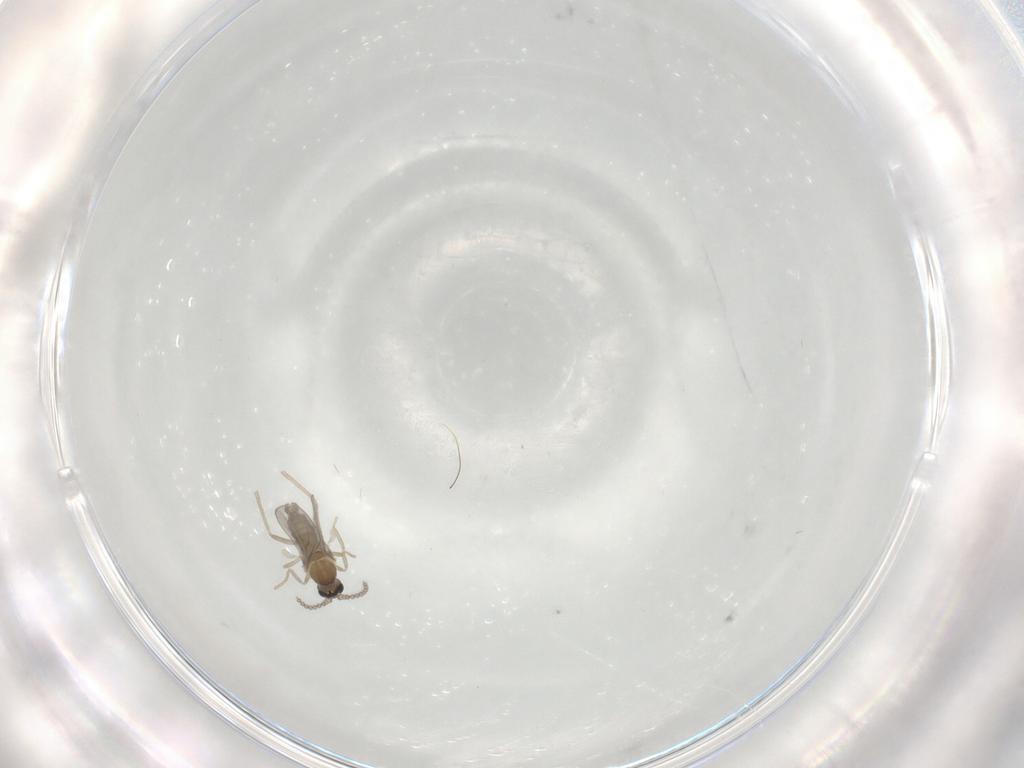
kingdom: Animalia
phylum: Arthropoda
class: Insecta
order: Diptera
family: Cecidomyiidae
